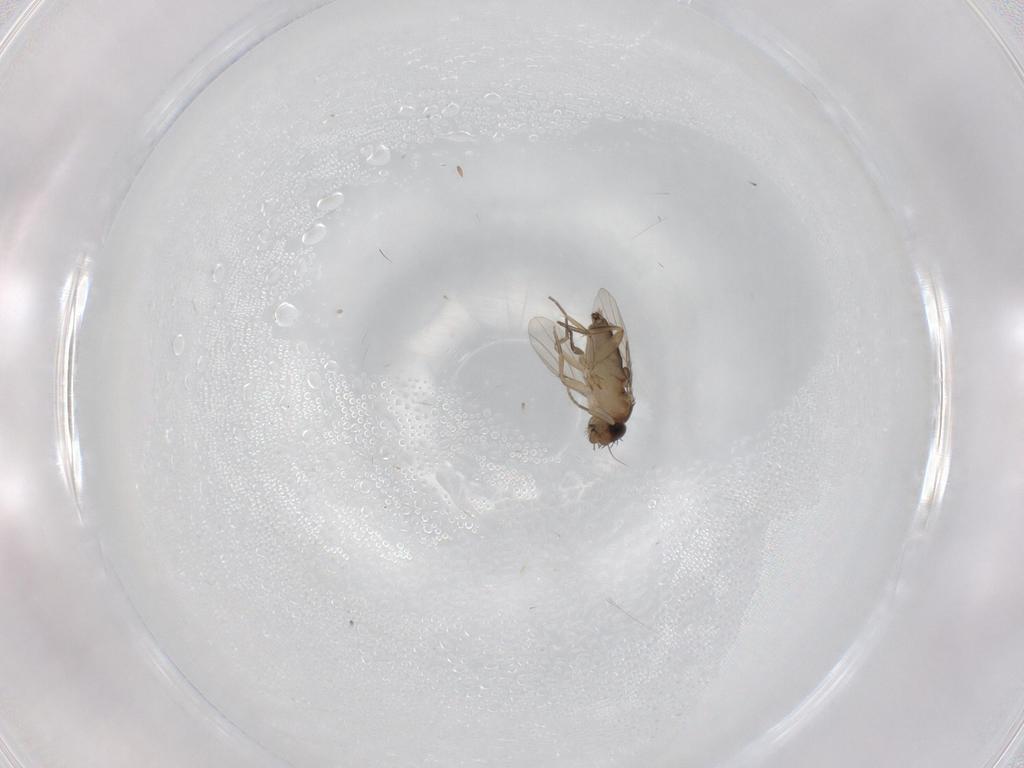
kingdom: Animalia
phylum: Arthropoda
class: Insecta
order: Diptera
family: Phoridae
